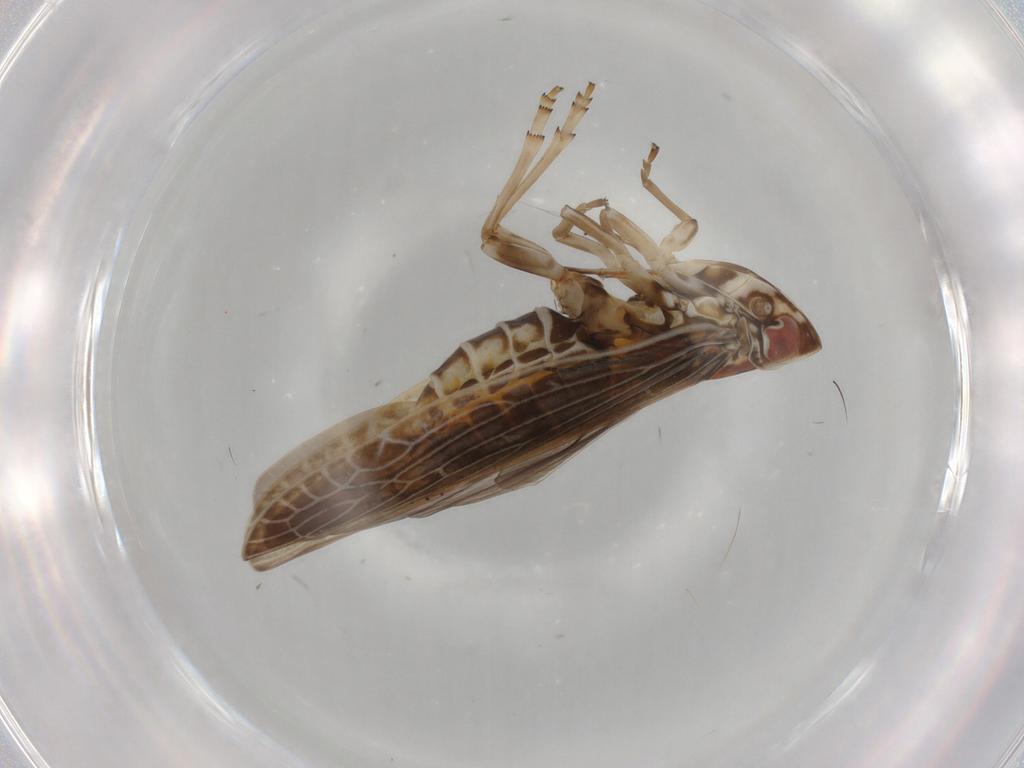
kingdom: Animalia
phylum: Arthropoda
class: Insecta
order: Hemiptera
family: Achilidae
